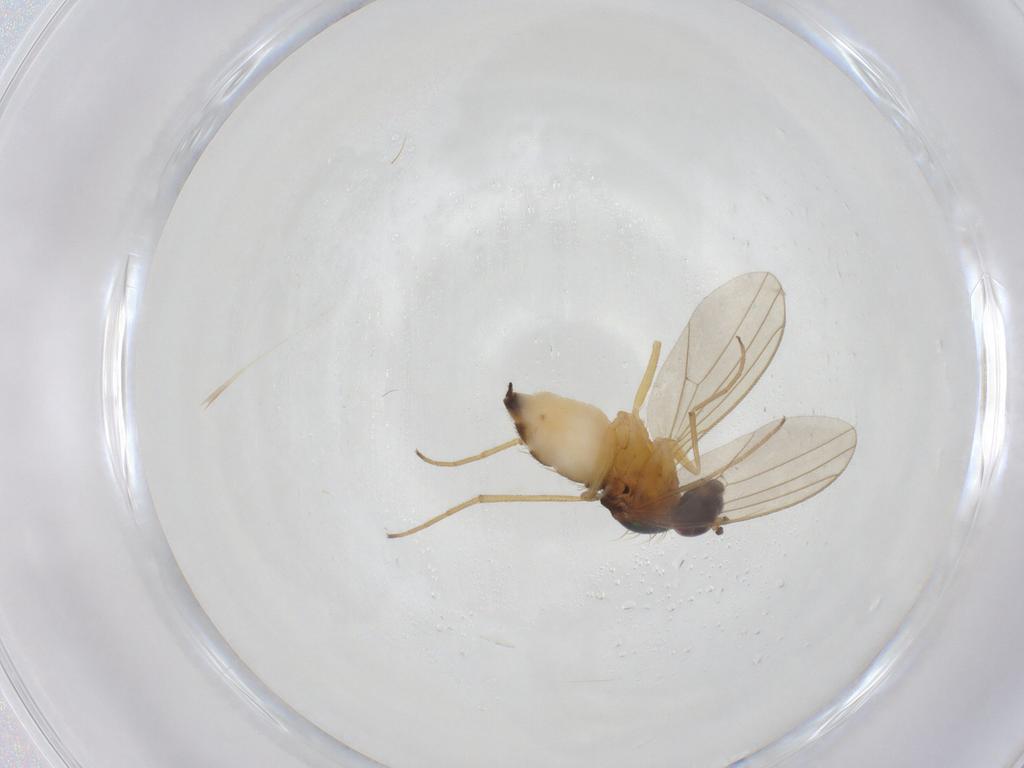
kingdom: Animalia
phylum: Arthropoda
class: Insecta
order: Diptera
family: Dolichopodidae
